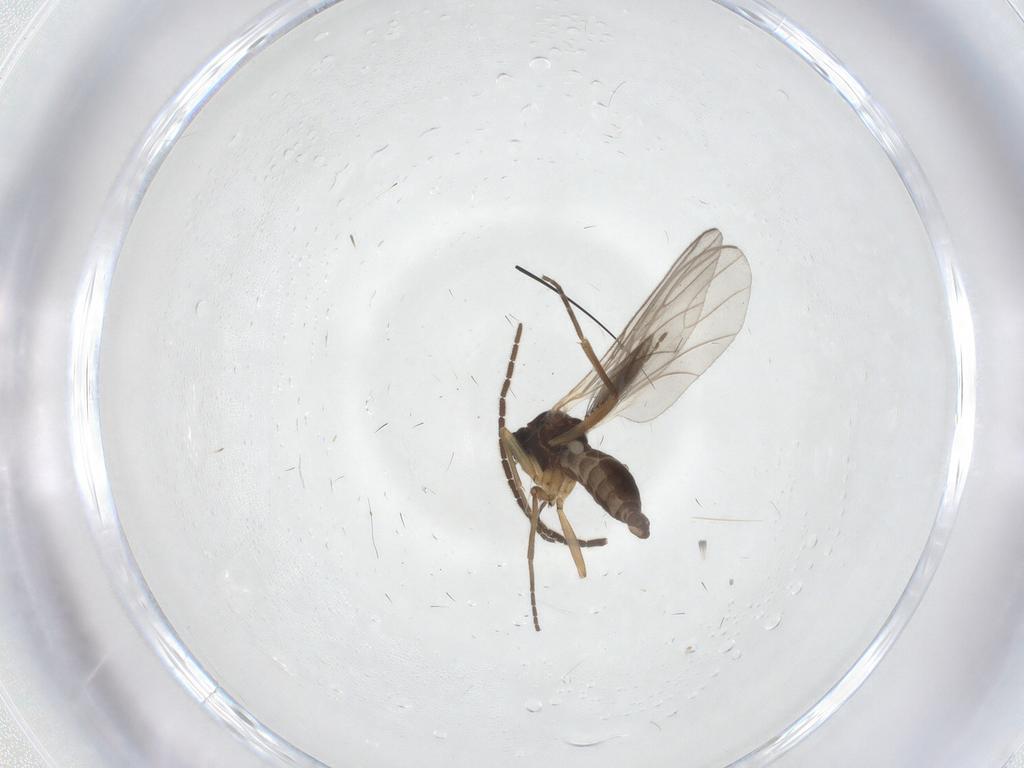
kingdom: Animalia
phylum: Arthropoda
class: Insecta
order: Diptera
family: Sciaridae
